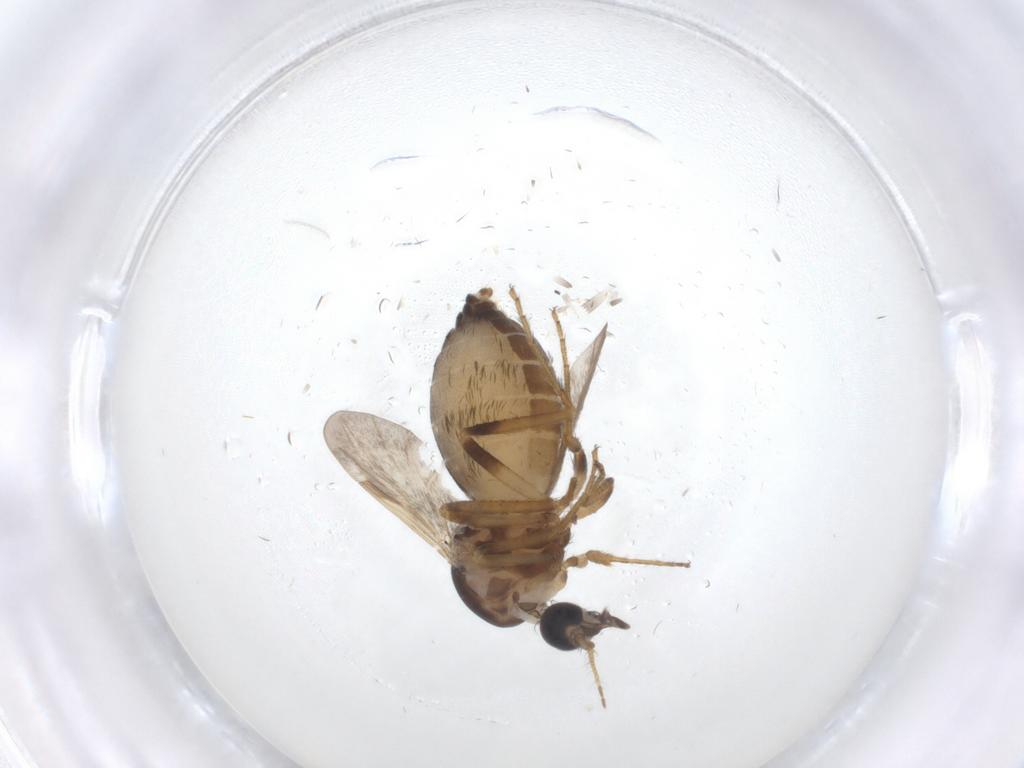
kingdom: Animalia
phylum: Arthropoda
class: Insecta
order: Diptera
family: Ceratopogonidae
